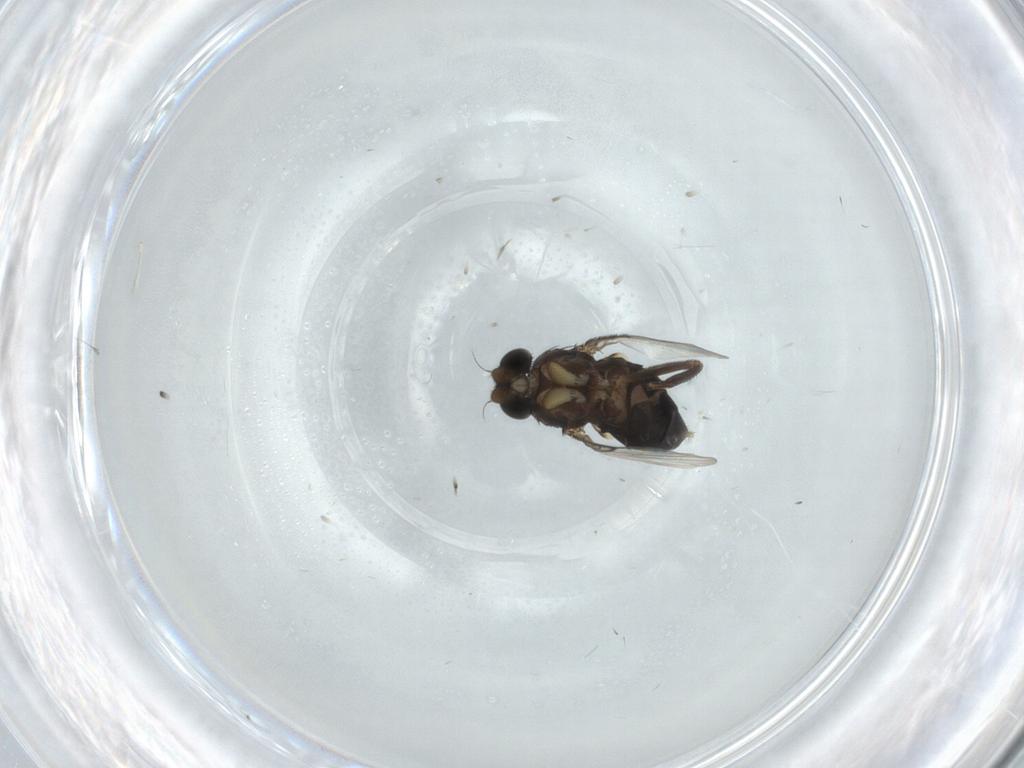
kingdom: Animalia
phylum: Arthropoda
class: Insecta
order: Diptera
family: Phoridae
